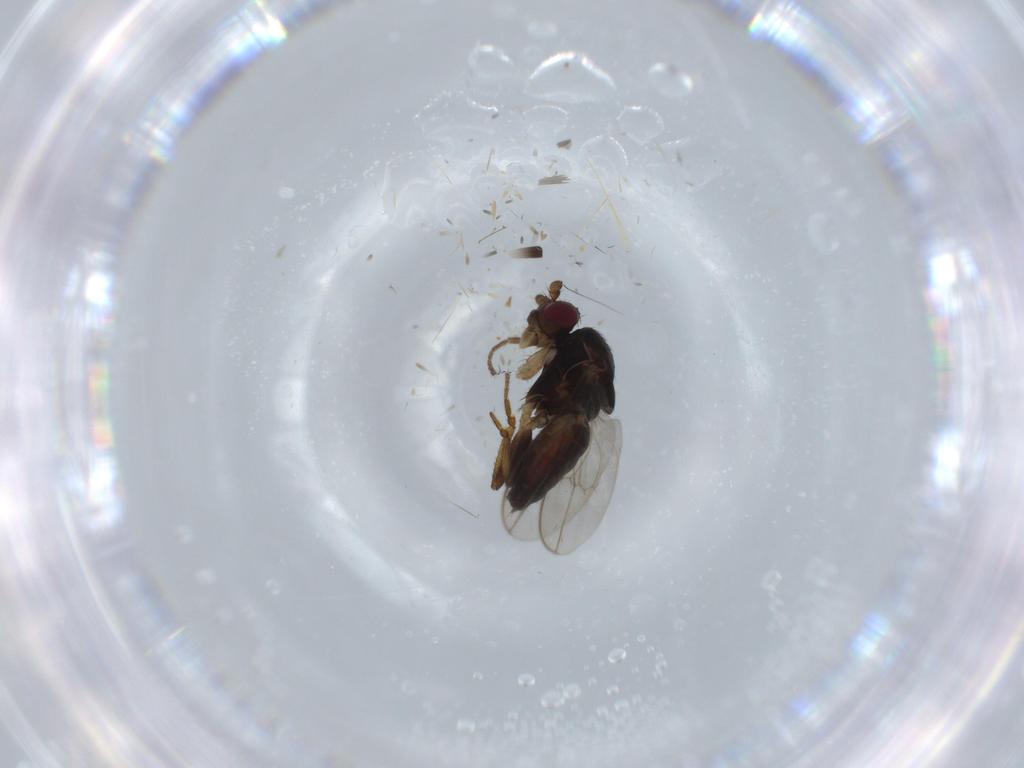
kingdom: Animalia
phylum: Arthropoda
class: Insecta
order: Diptera
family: Sphaeroceridae
